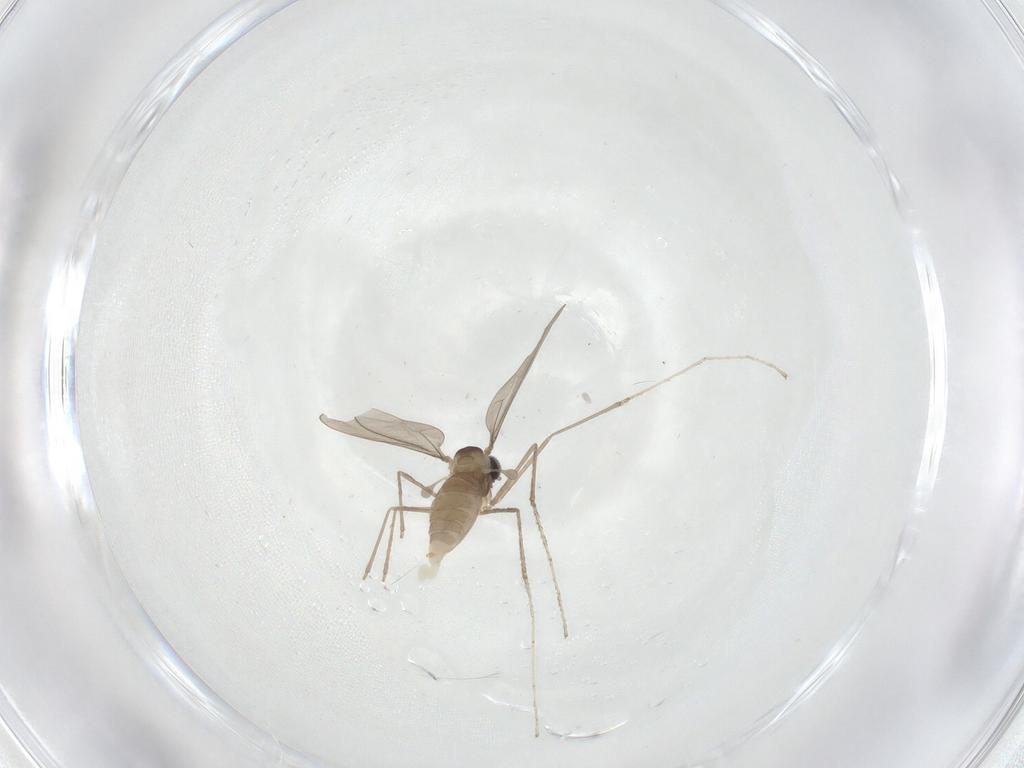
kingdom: Animalia
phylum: Arthropoda
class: Insecta
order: Diptera
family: Cecidomyiidae
